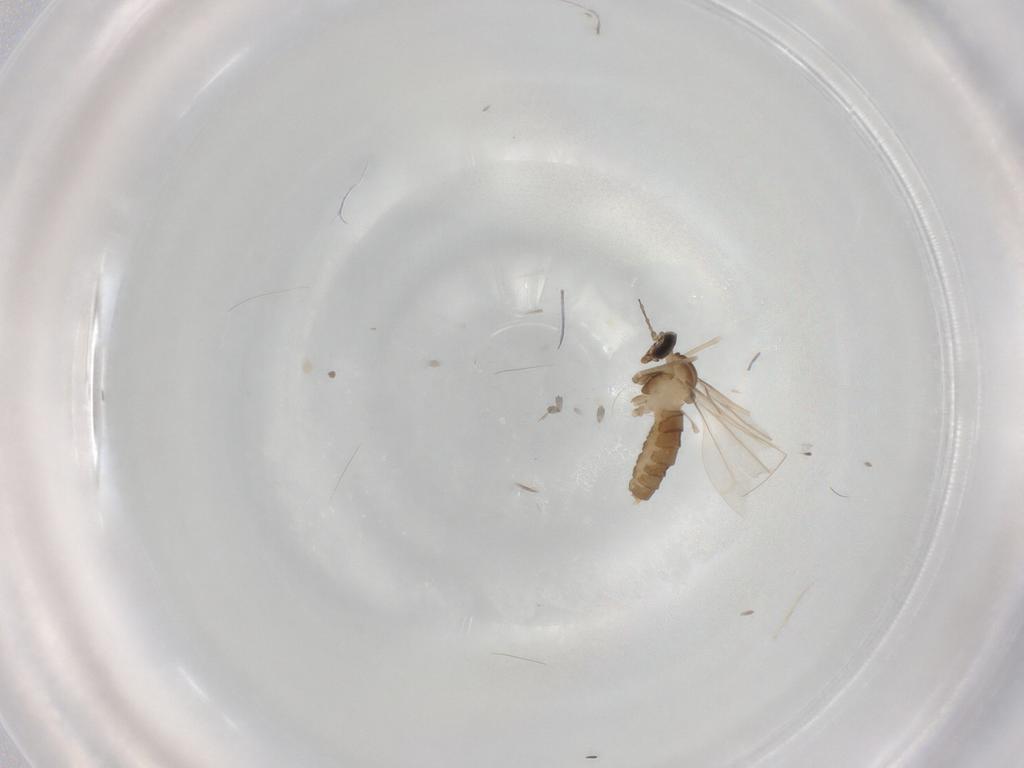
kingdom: Animalia
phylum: Arthropoda
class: Insecta
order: Diptera
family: Cecidomyiidae
